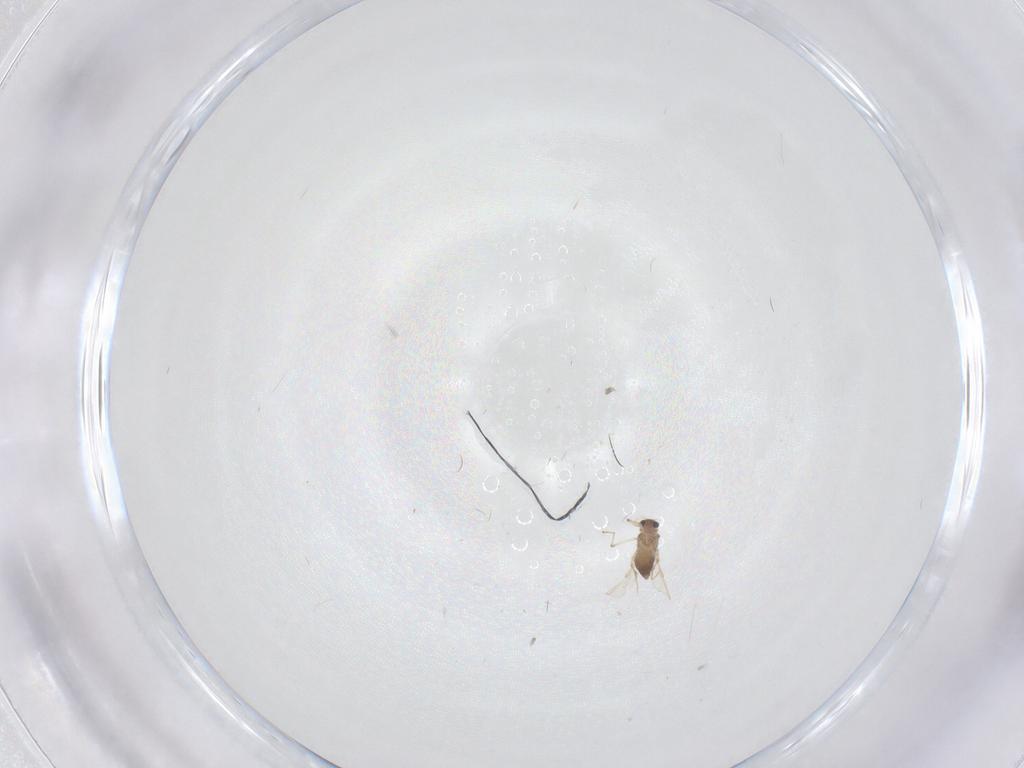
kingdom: Animalia
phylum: Arthropoda
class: Insecta
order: Diptera
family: Chironomidae
